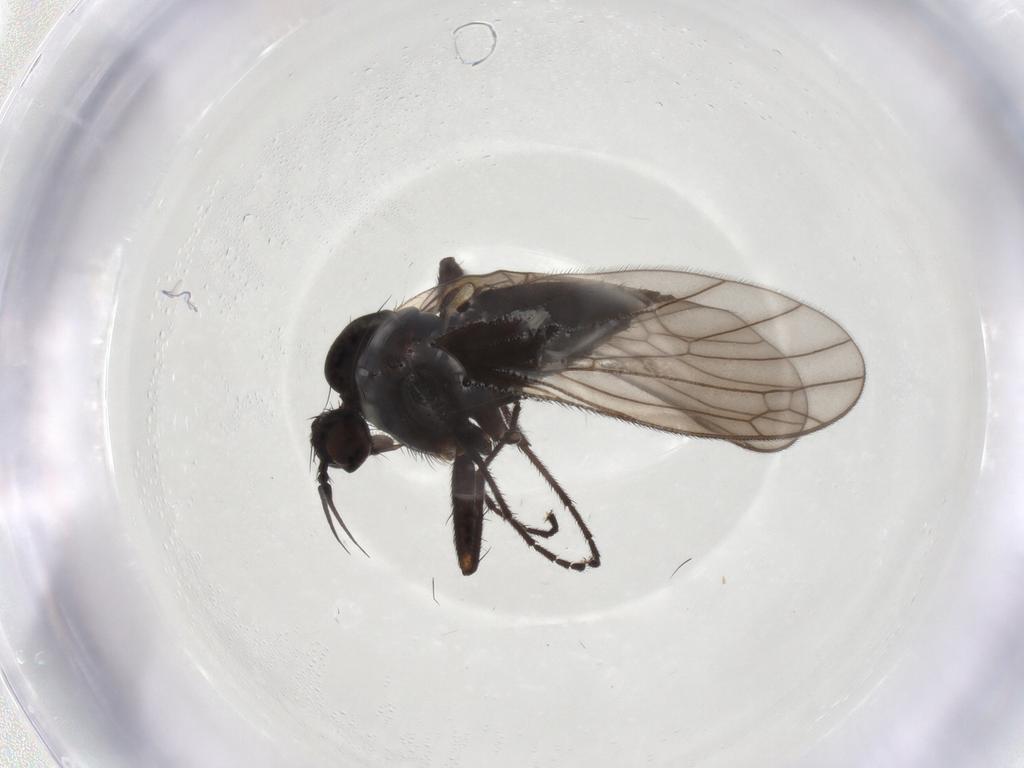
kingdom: Animalia
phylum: Arthropoda
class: Insecta
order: Diptera
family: Empididae
